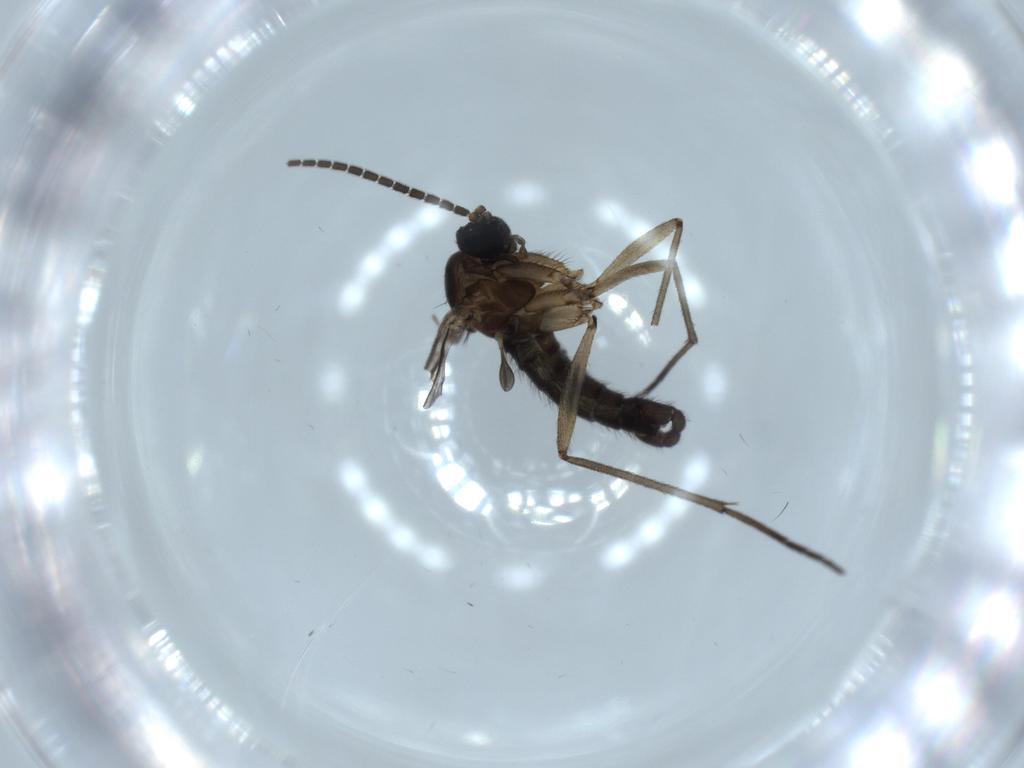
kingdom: Animalia
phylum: Arthropoda
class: Insecta
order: Diptera
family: Sciaridae
